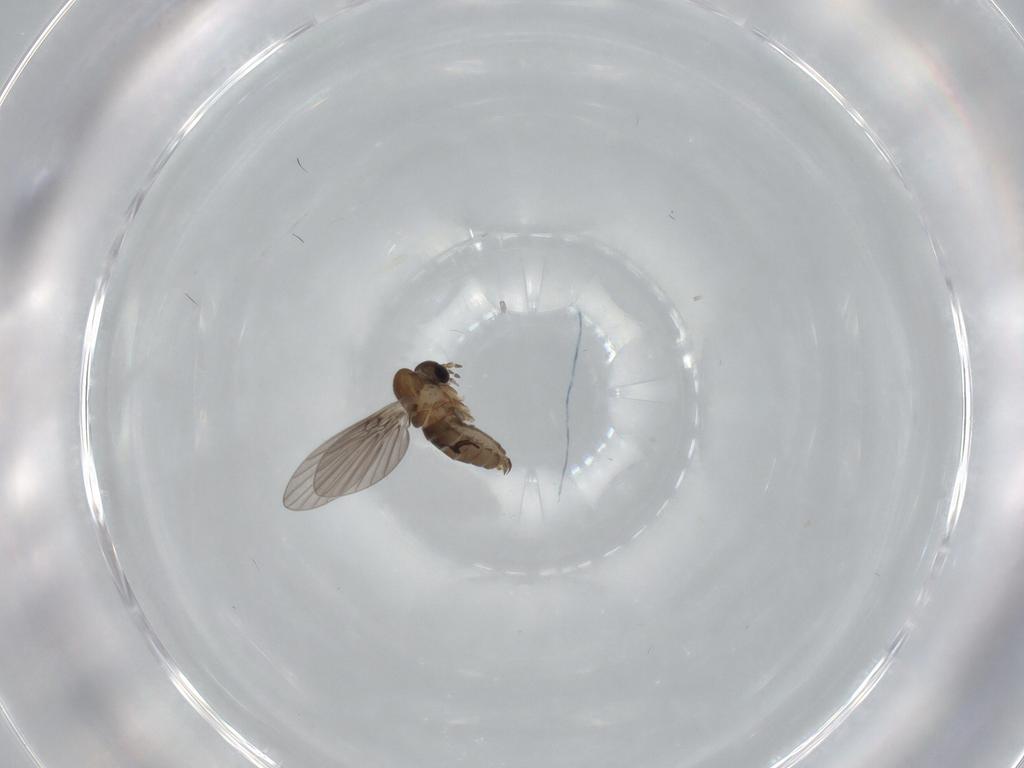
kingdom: Animalia
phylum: Arthropoda
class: Insecta
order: Diptera
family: Psychodidae
